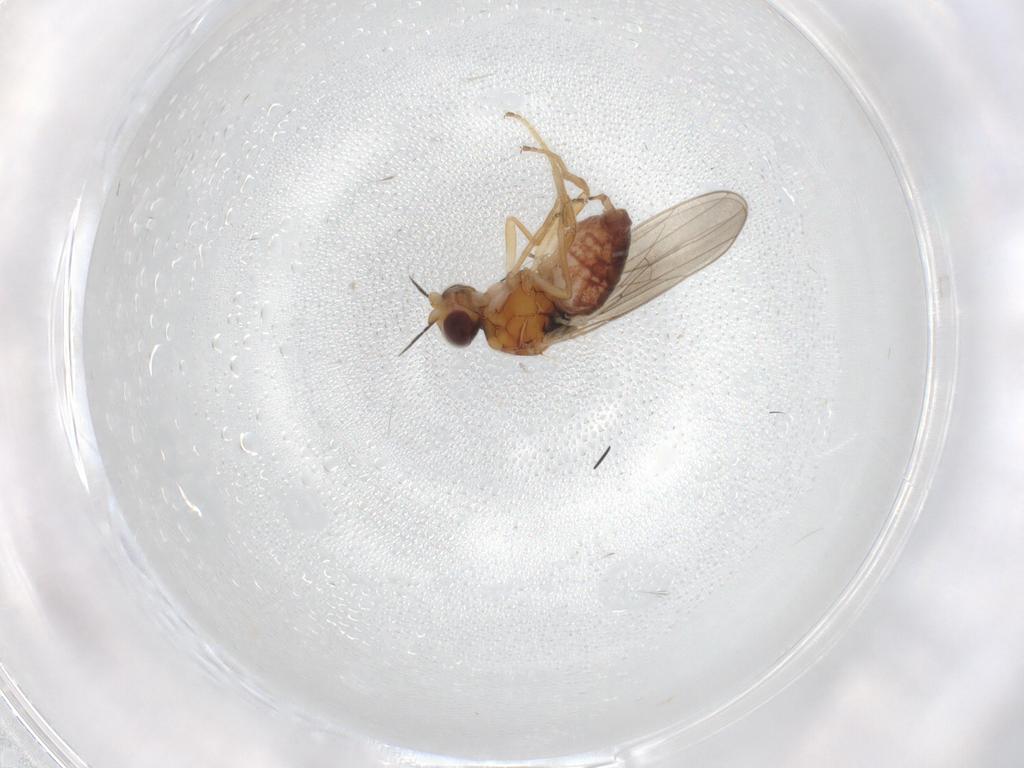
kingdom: Animalia
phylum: Arthropoda
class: Insecta
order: Diptera
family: Chloropidae
